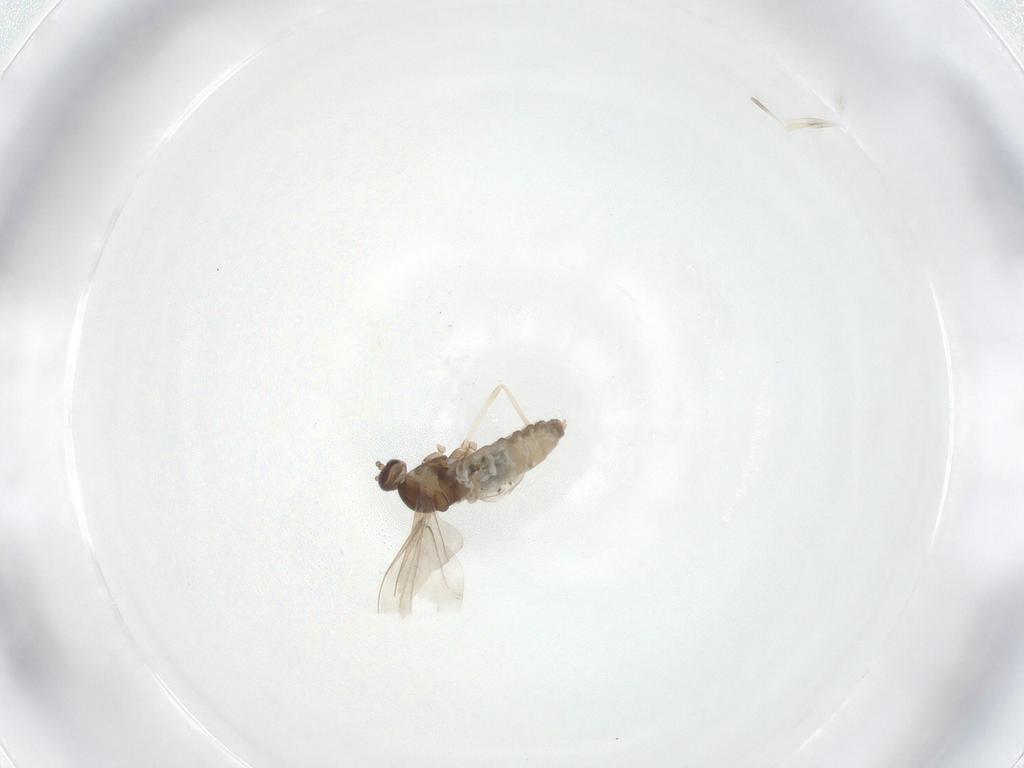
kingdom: Animalia
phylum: Arthropoda
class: Insecta
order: Diptera
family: Cecidomyiidae
